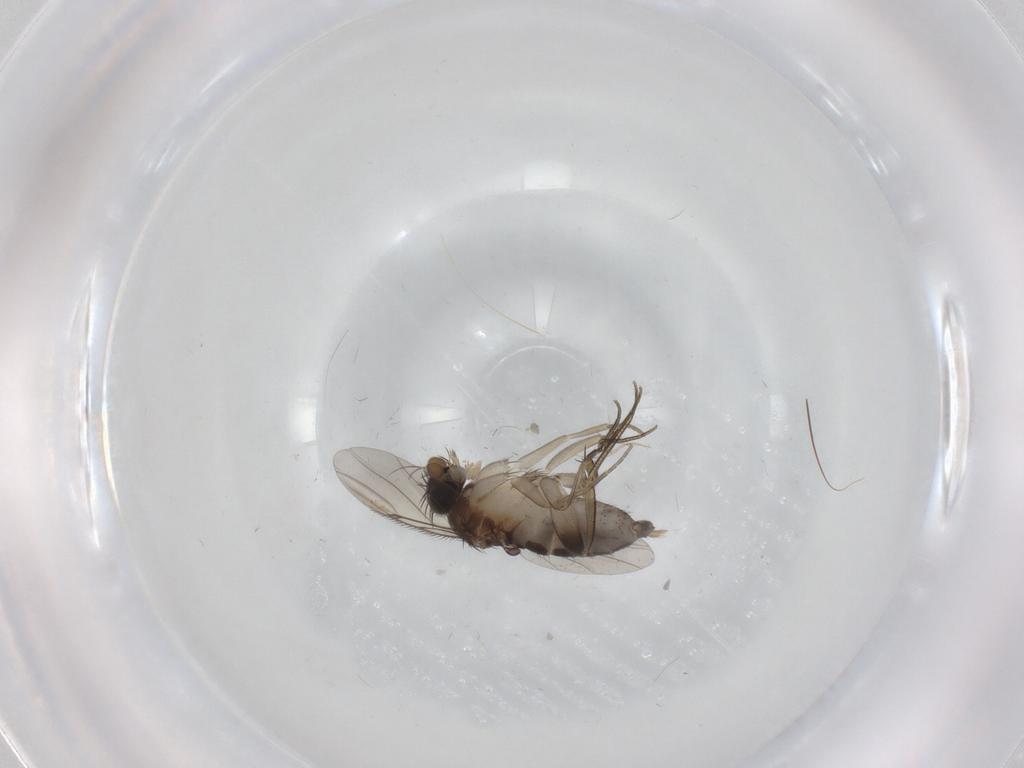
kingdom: Animalia
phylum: Arthropoda
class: Insecta
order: Diptera
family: Phoridae
